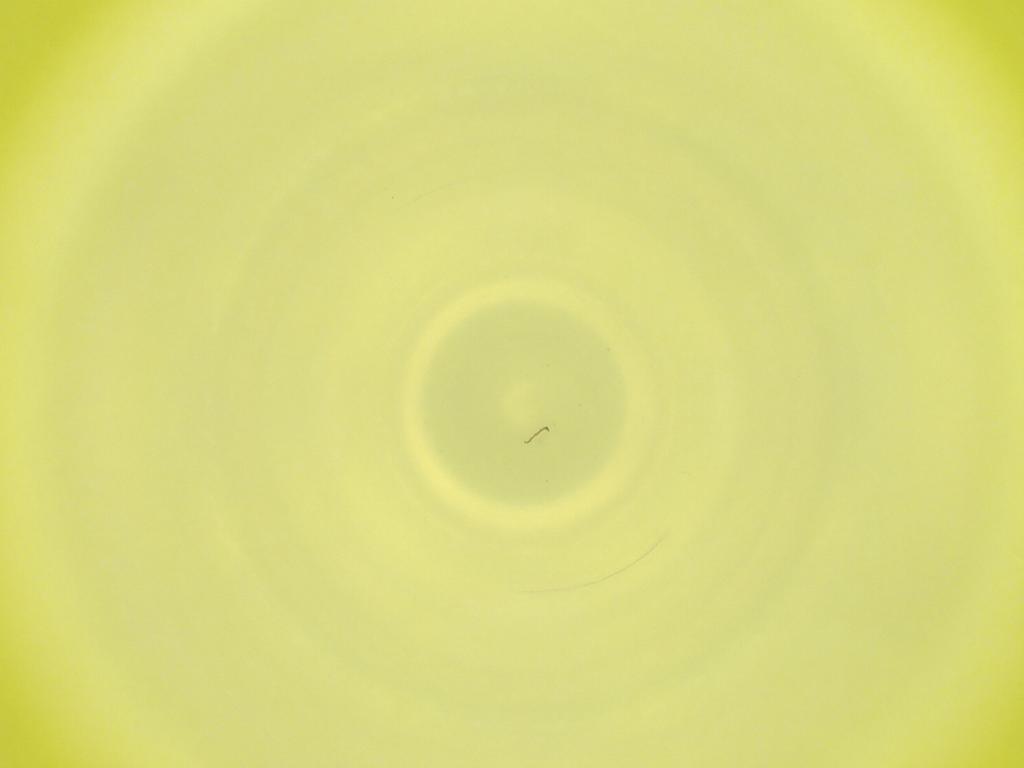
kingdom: Animalia
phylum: Arthropoda
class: Insecta
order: Diptera
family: Cecidomyiidae
